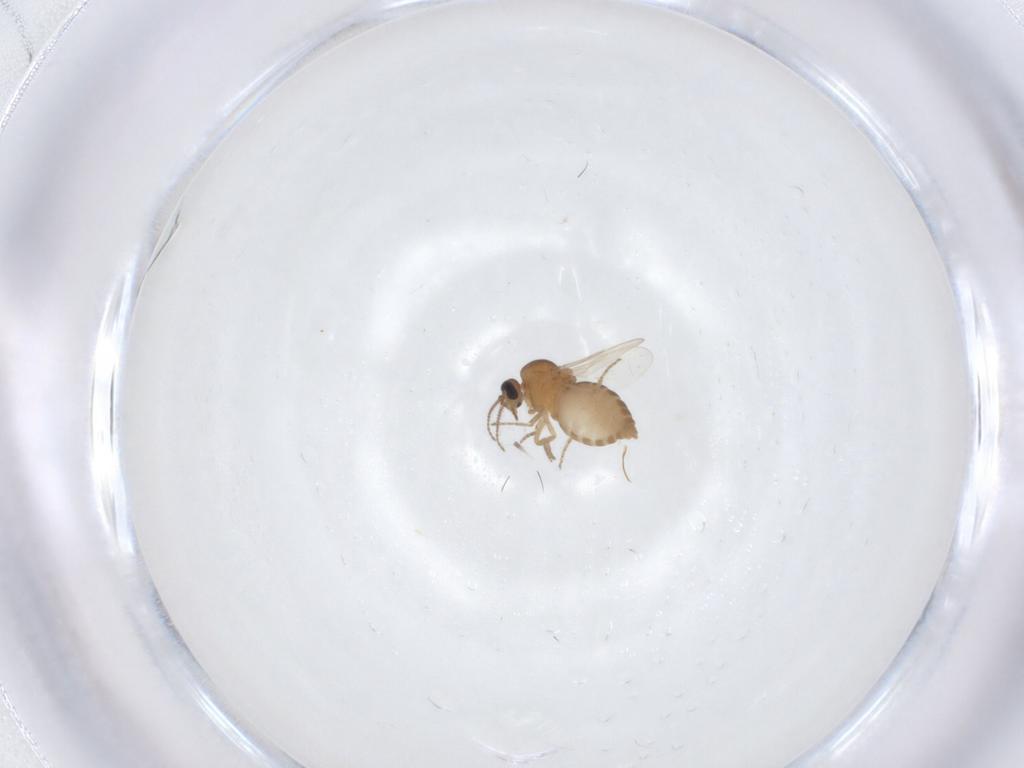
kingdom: Animalia
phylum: Arthropoda
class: Insecta
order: Diptera
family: Ceratopogonidae
